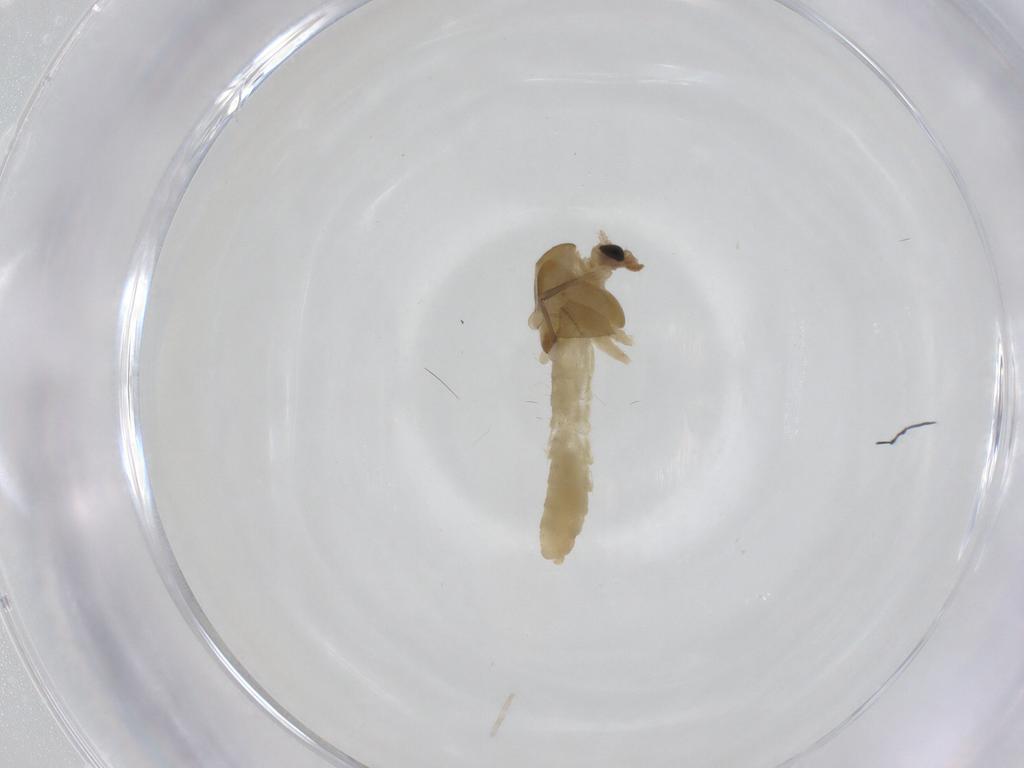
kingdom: Animalia
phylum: Arthropoda
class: Insecta
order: Diptera
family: Chironomidae
